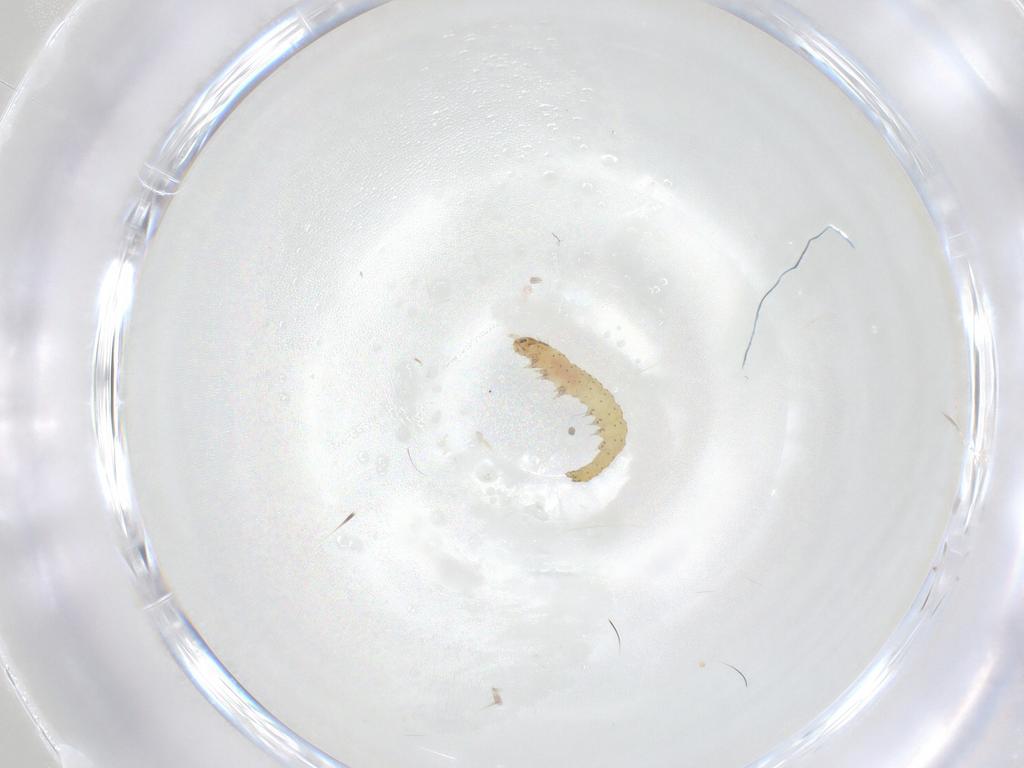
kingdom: Animalia
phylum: Arthropoda
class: Insecta
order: Lepidoptera
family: Gelechiidae
